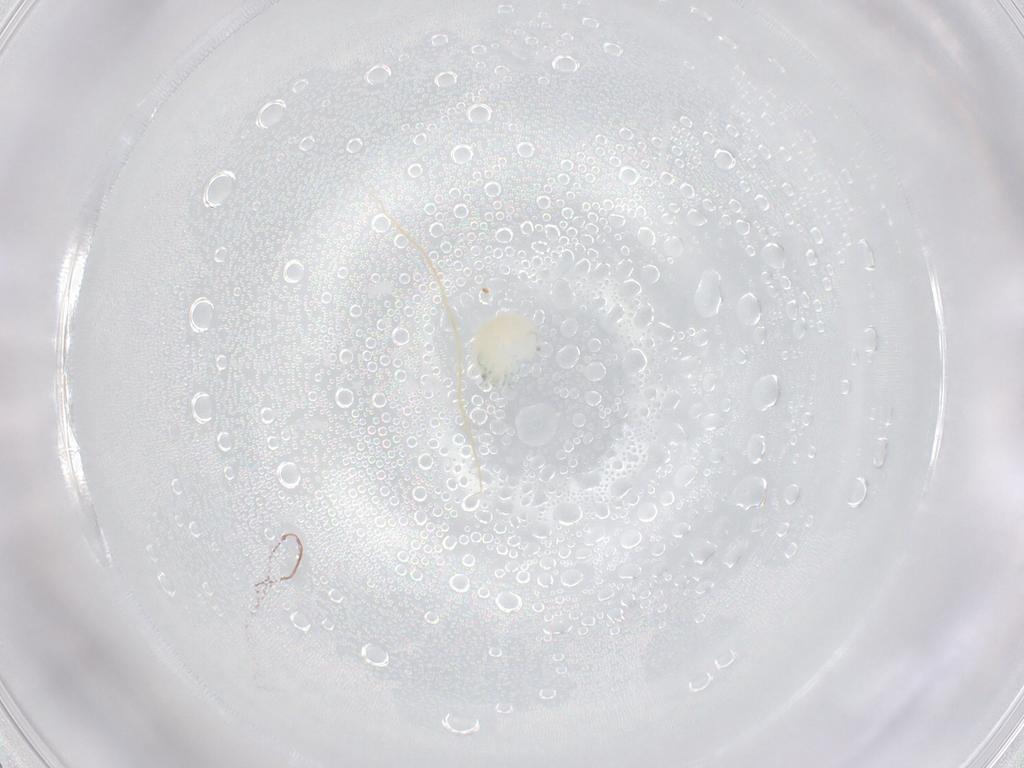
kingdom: Animalia
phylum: Arthropoda
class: Arachnida
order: Trombidiformes
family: Arrenuridae
